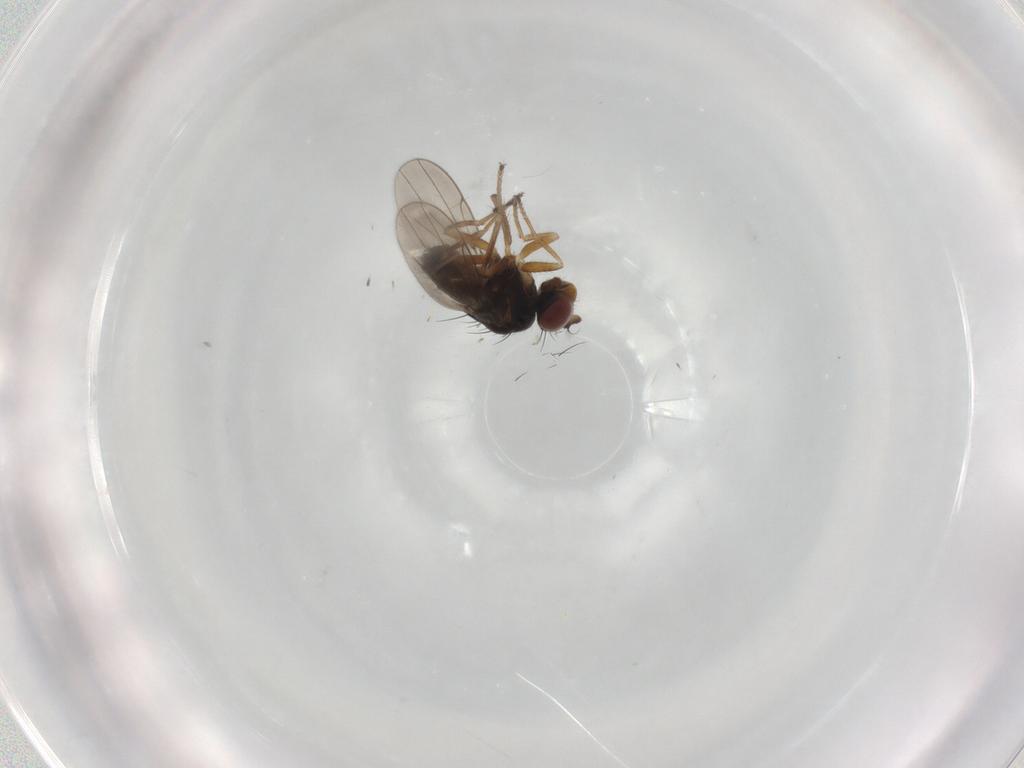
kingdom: Animalia
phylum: Arthropoda
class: Insecta
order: Diptera
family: Ephydridae
